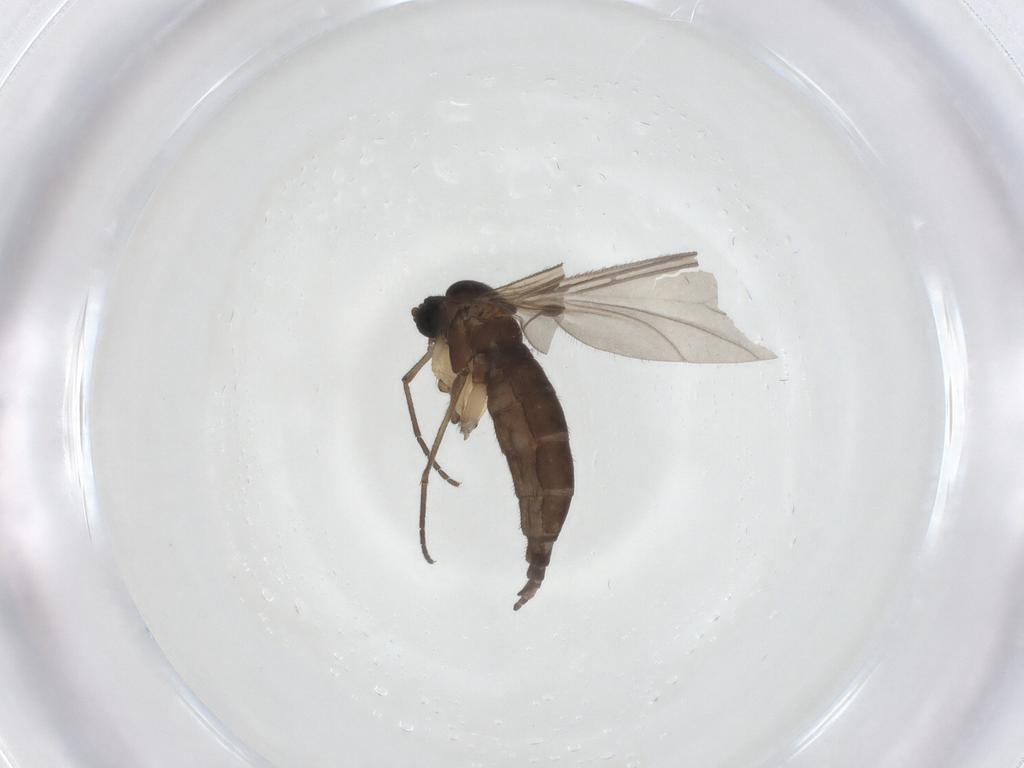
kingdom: Animalia
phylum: Arthropoda
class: Insecta
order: Diptera
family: Sciaridae
